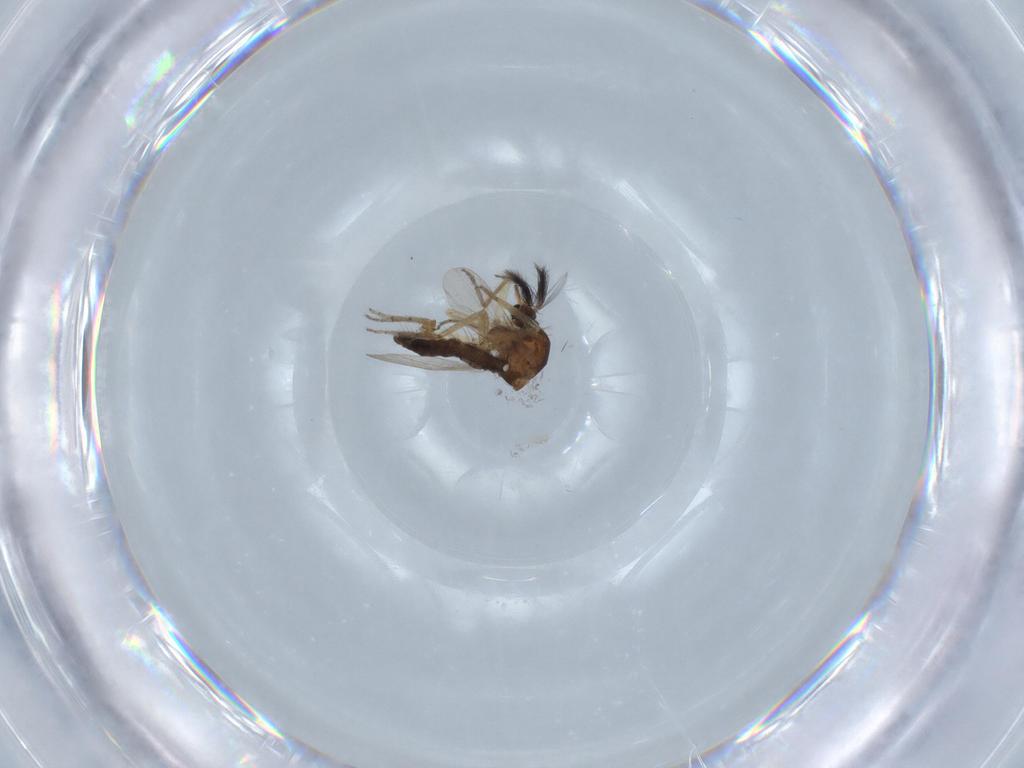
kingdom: Animalia
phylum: Arthropoda
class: Insecta
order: Diptera
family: Ceratopogonidae
